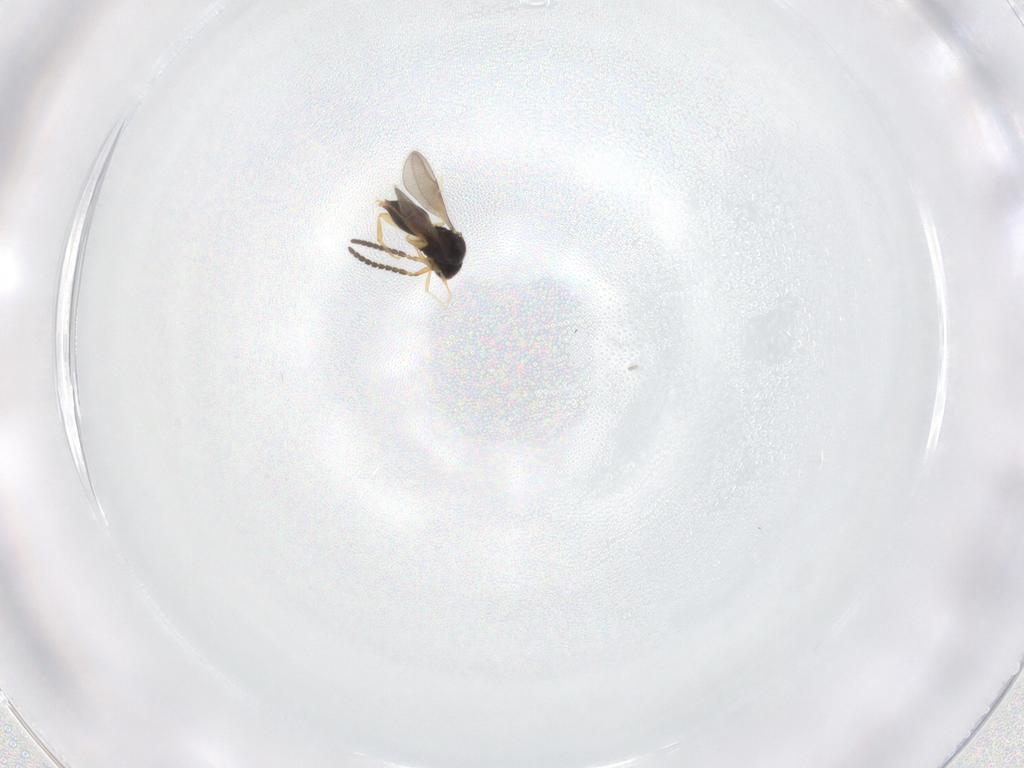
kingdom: Animalia
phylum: Arthropoda
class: Insecta
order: Hymenoptera
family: Ceraphronidae
